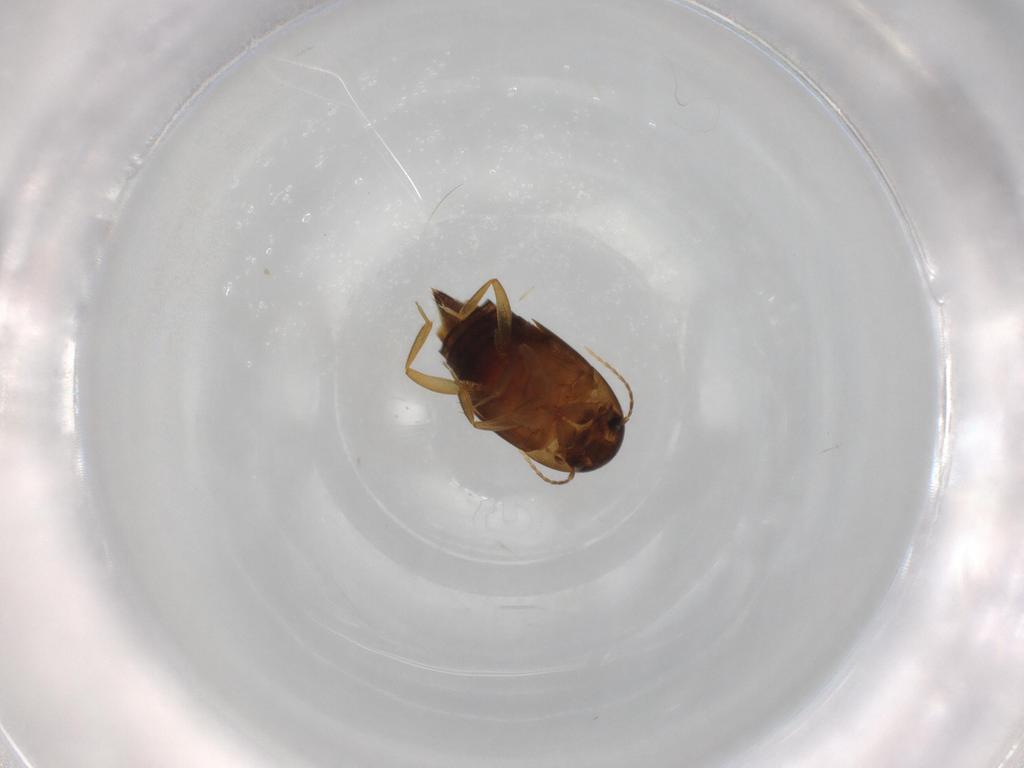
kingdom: Animalia
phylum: Arthropoda
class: Insecta
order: Coleoptera
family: Staphylinidae
